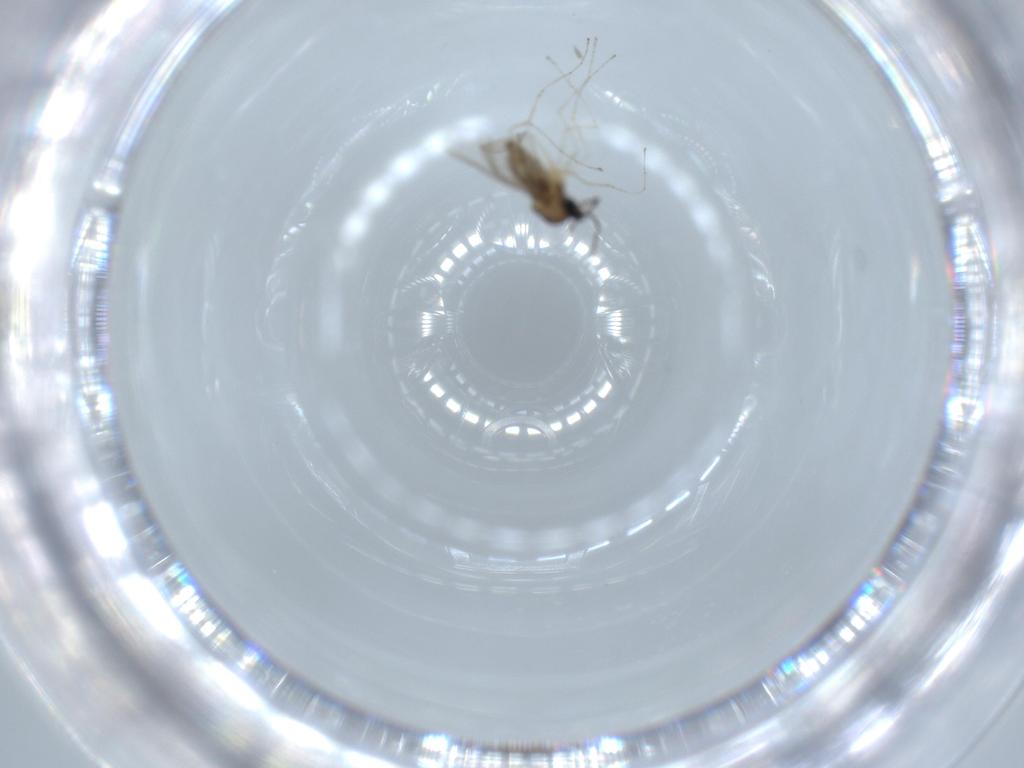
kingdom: Animalia
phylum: Arthropoda
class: Insecta
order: Diptera
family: Cecidomyiidae
